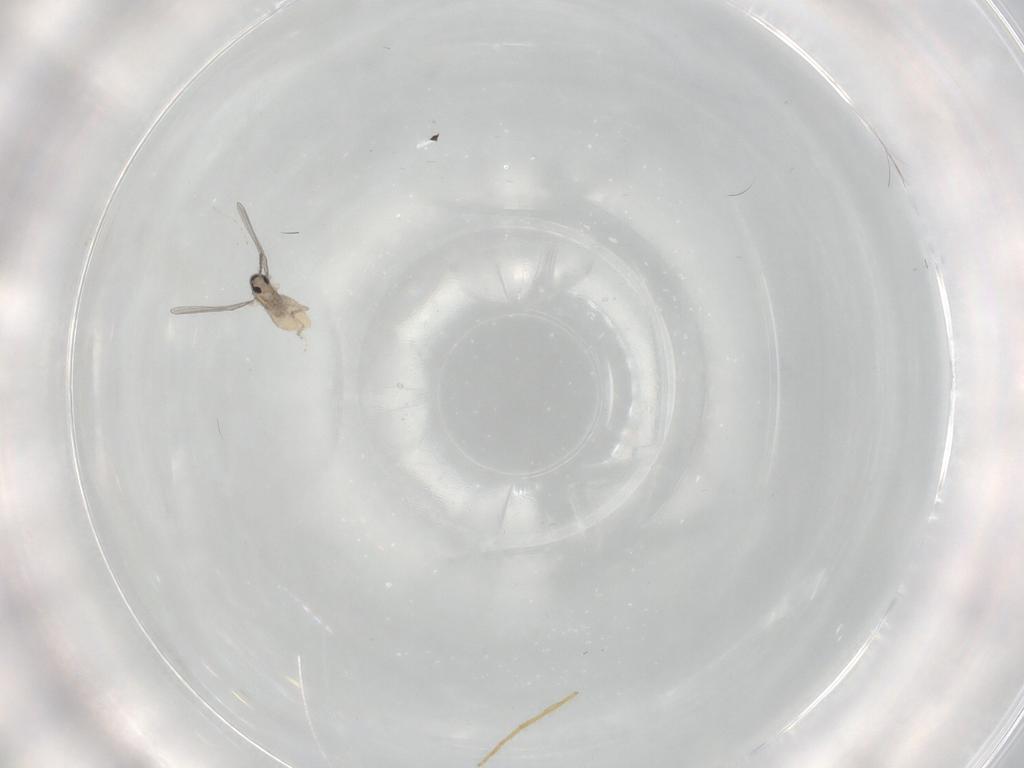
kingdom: Animalia
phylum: Arthropoda
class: Insecta
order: Diptera
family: Cecidomyiidae
